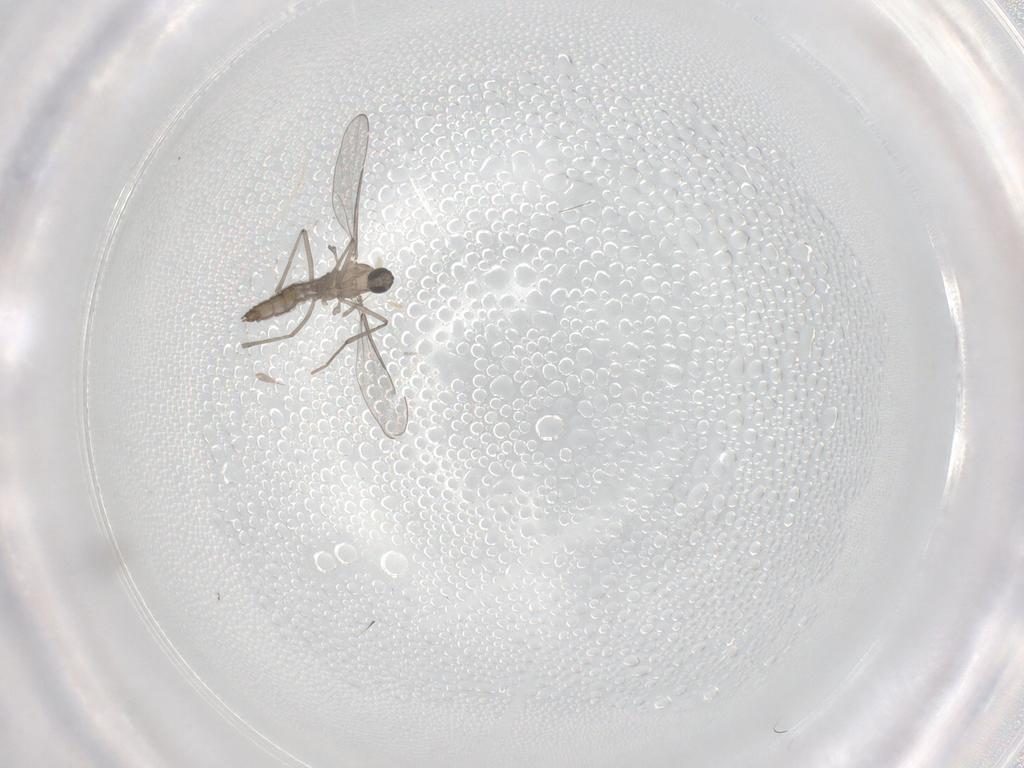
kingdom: Animalia
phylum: Arthropoda
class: Insecta
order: Diptera
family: Cecidomyiidae
